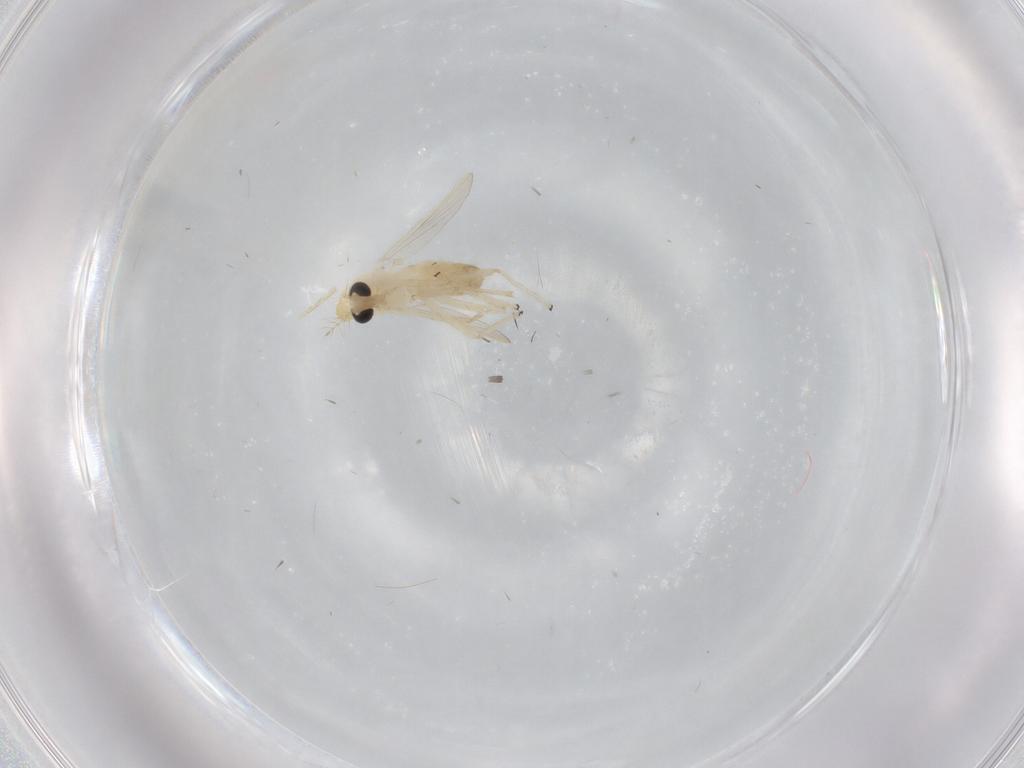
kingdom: Animalia
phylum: Arthropoda
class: Insecta
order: Diptera
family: Chironomidae
